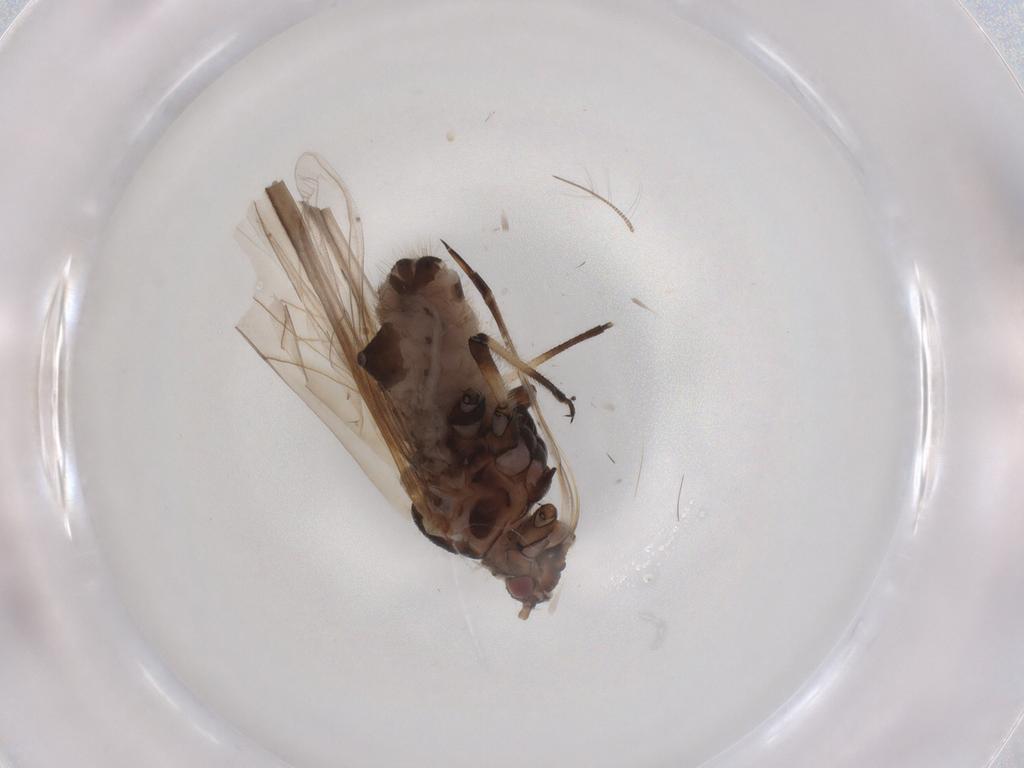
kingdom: Animalia
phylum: Arthropoda
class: Insecta
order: Hemiptera
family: Aphididae
